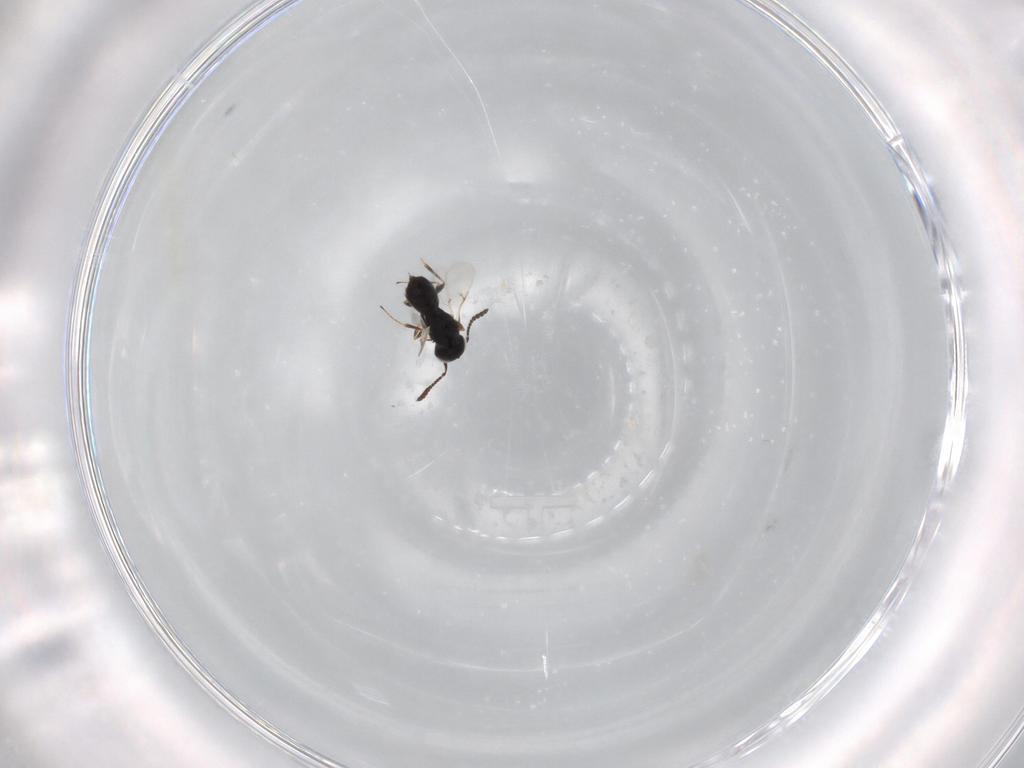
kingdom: Animalia
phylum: Arthropoda
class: Insecta
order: Hymenoptera
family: Scelionidae
